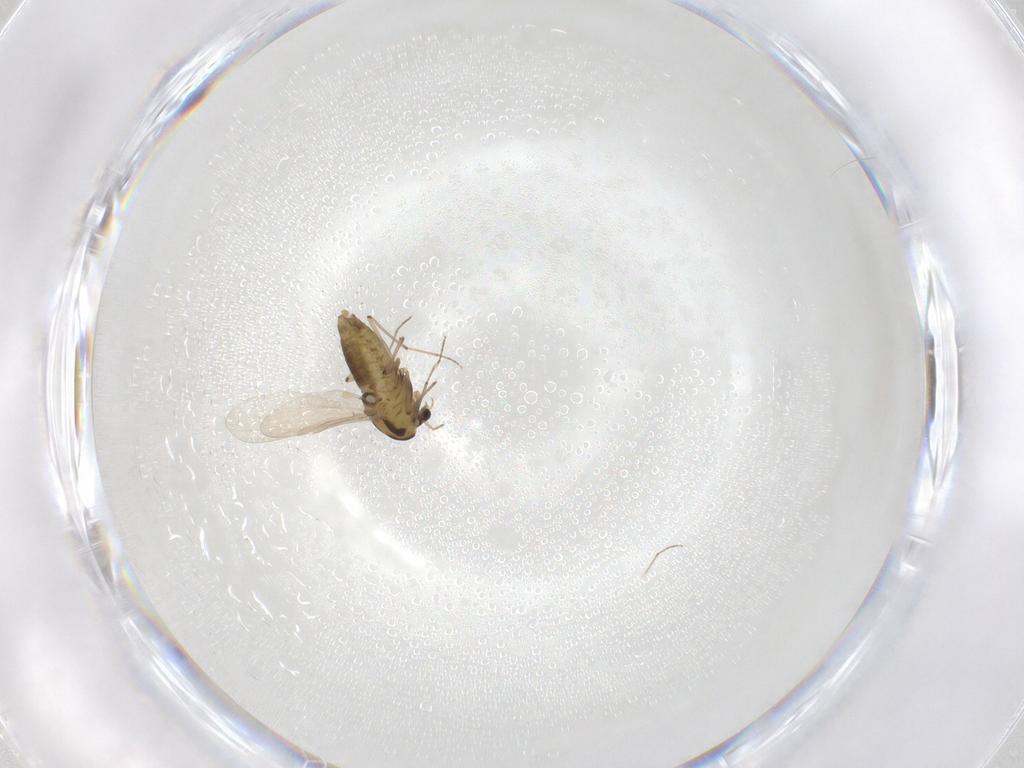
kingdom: Animalia
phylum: Arthropoda
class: Insecta
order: Diptera
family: Chironomidae
